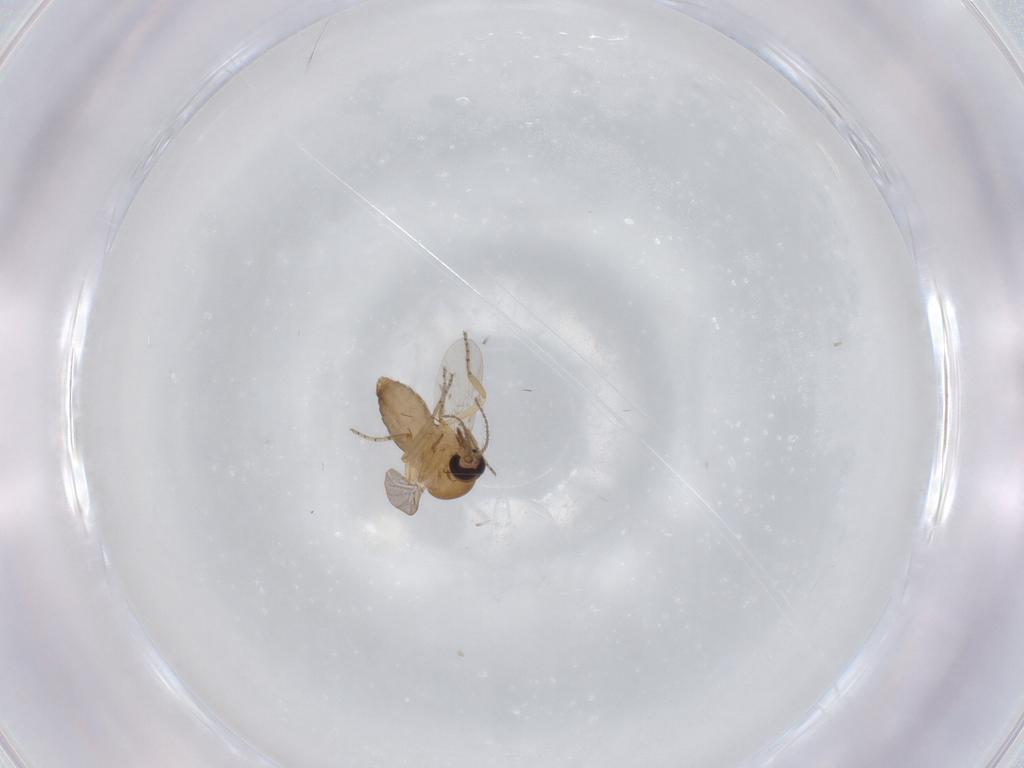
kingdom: Animalia
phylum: Arthropoda
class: Insecta
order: Diptera
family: Ceratopogonidae
